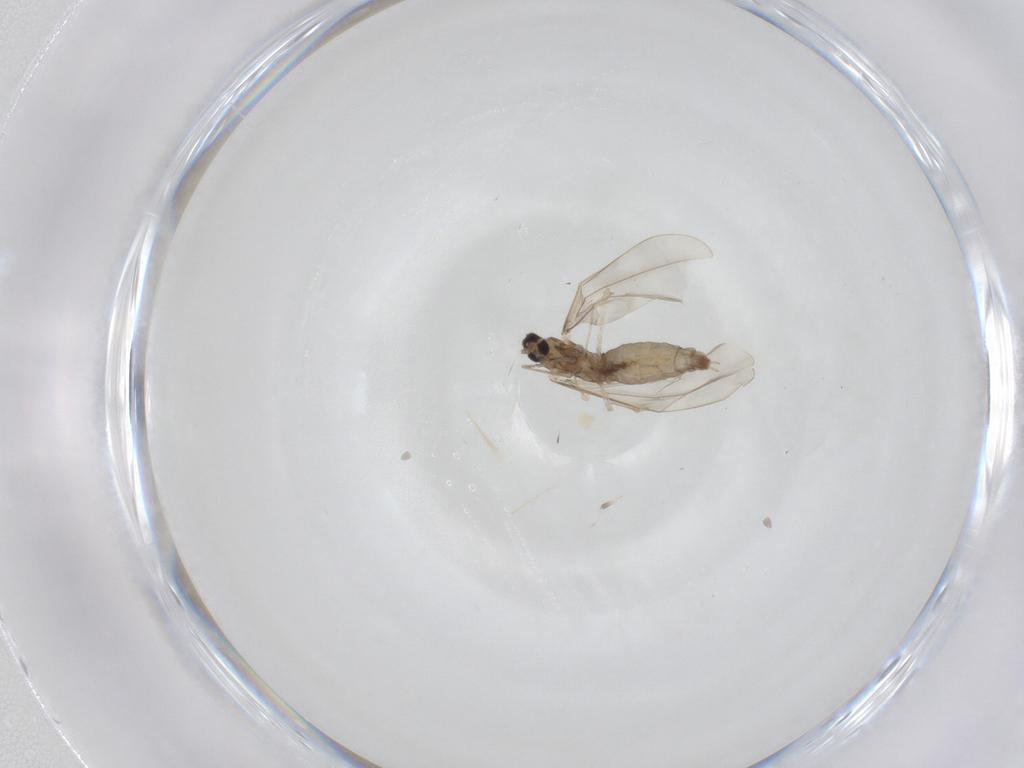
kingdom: Animalia
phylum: Arthropoda
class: Insecta
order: Diptera
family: Cecidomyiidae
